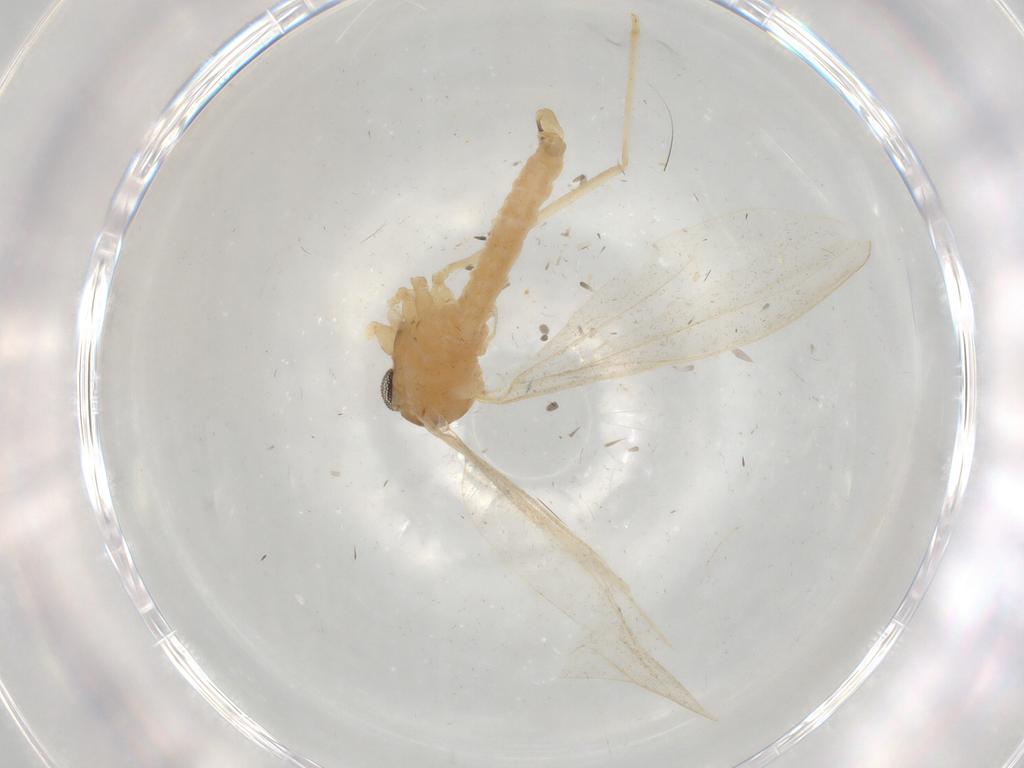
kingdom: Animalia
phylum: Arthropoda
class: Insecta
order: Diptera
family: Cecidomyiidae
